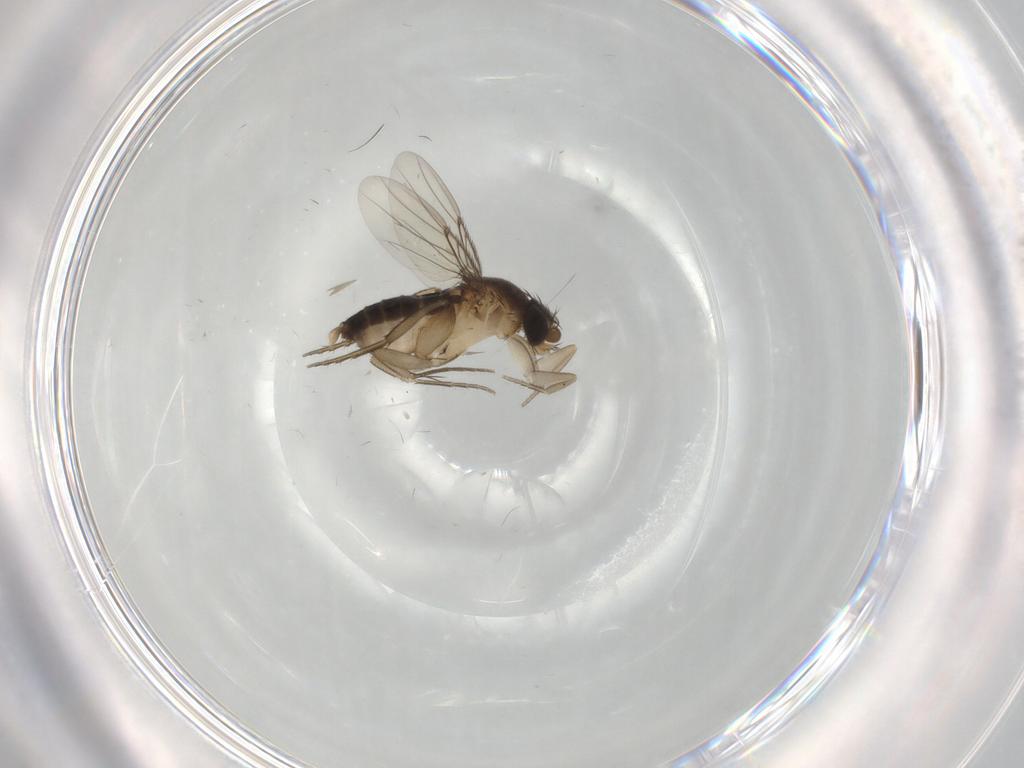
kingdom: Animalia
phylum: Arthropoda
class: Insecta
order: Diptera
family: Phoridae
